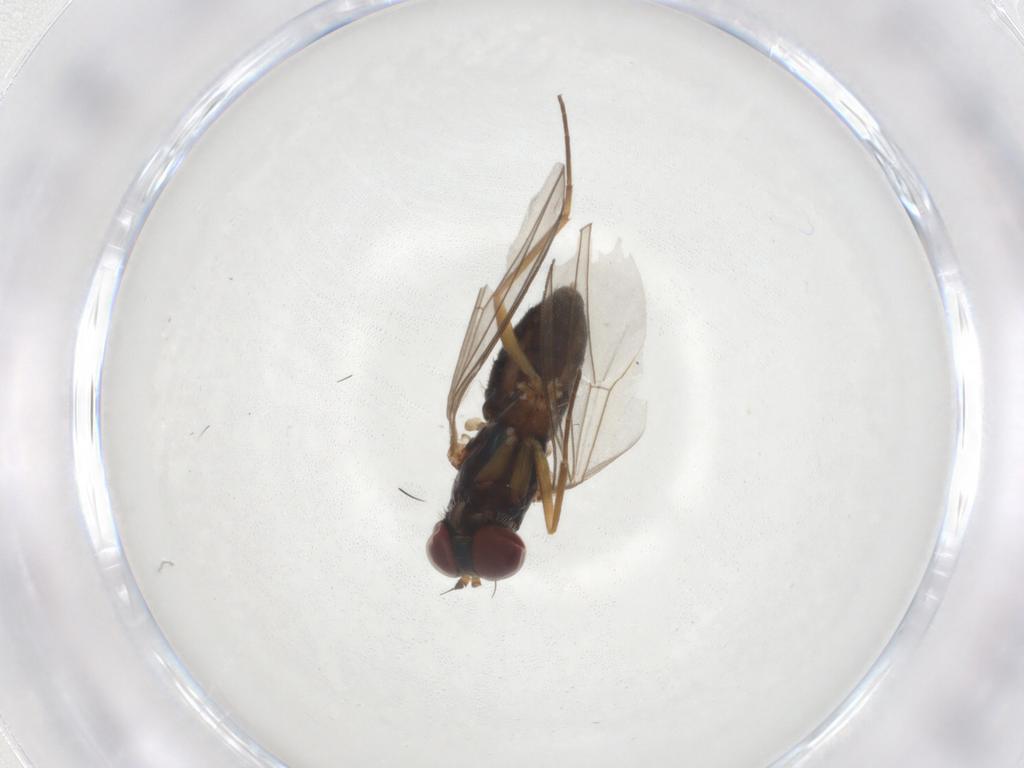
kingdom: Animalia
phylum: Arthropoda
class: Insecta
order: Diptera
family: Dolichopodidae
